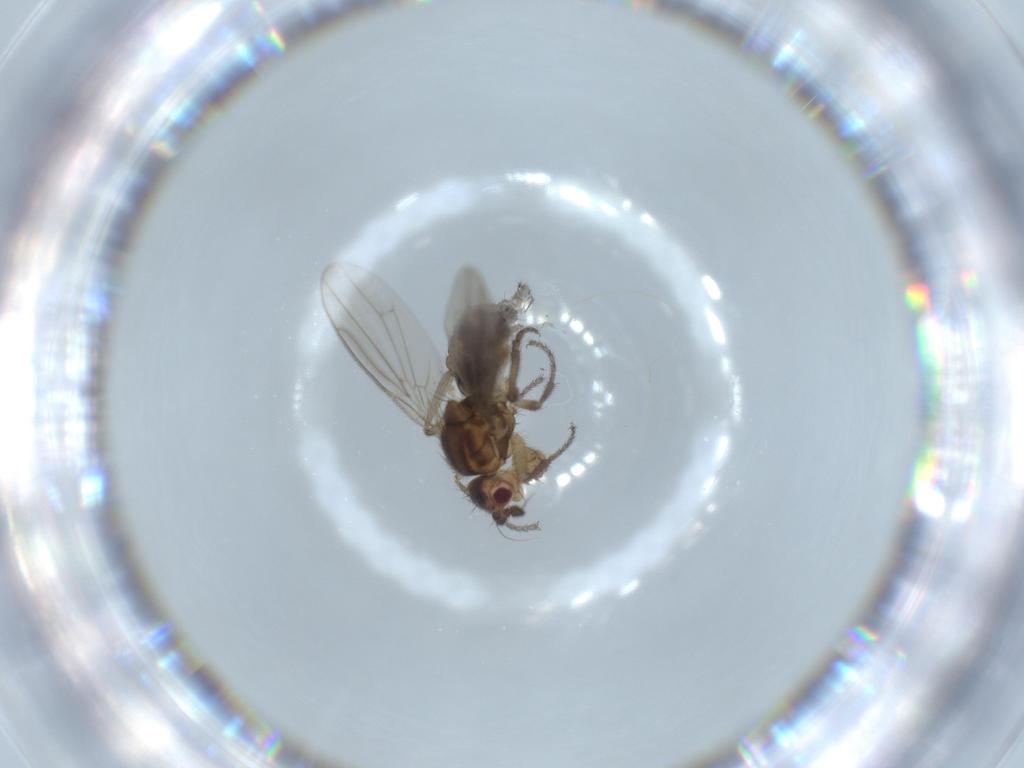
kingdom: Animalia
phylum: Arthropoda
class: Insecta
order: Diptera
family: Sphaeroceridae
